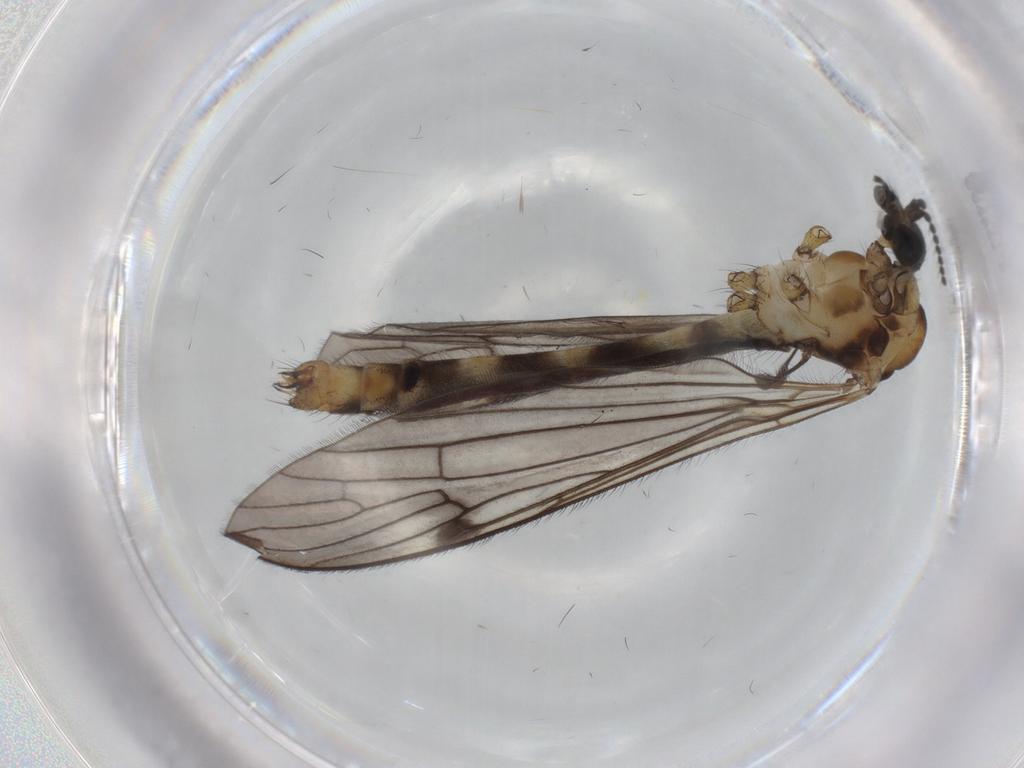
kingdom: Animalia
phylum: Arthropoda
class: Insecta
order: Diptera
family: Limoniidae
